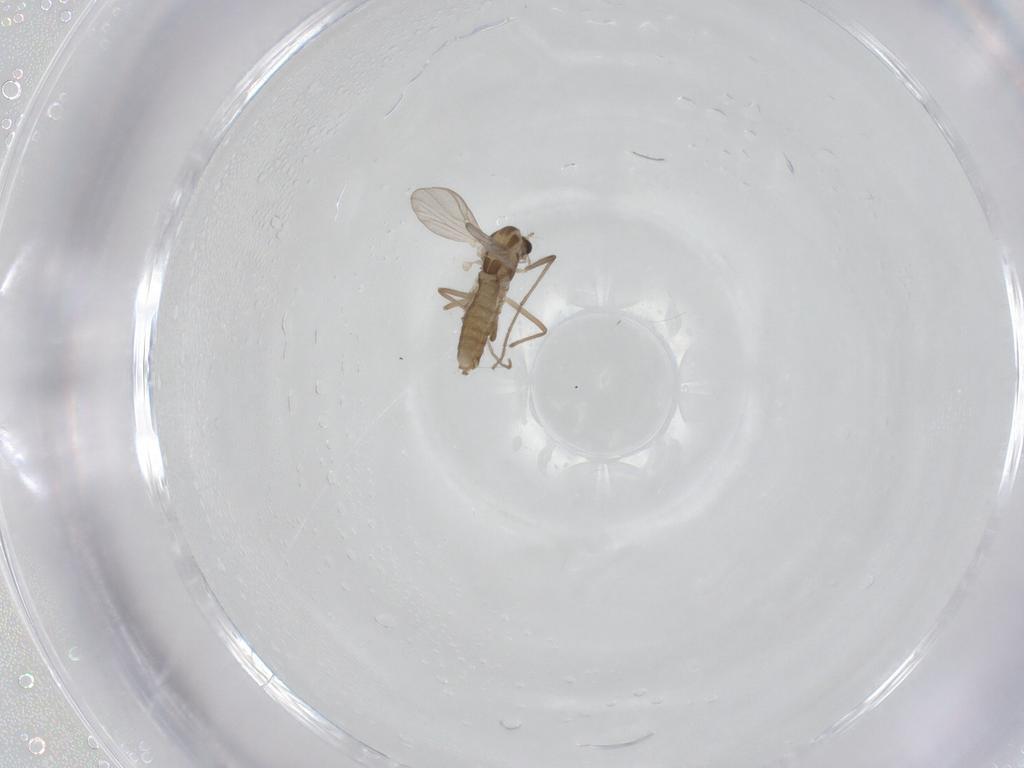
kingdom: Animalia
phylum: Arthropoda
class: Insecta
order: Diptera
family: Chironomidae
